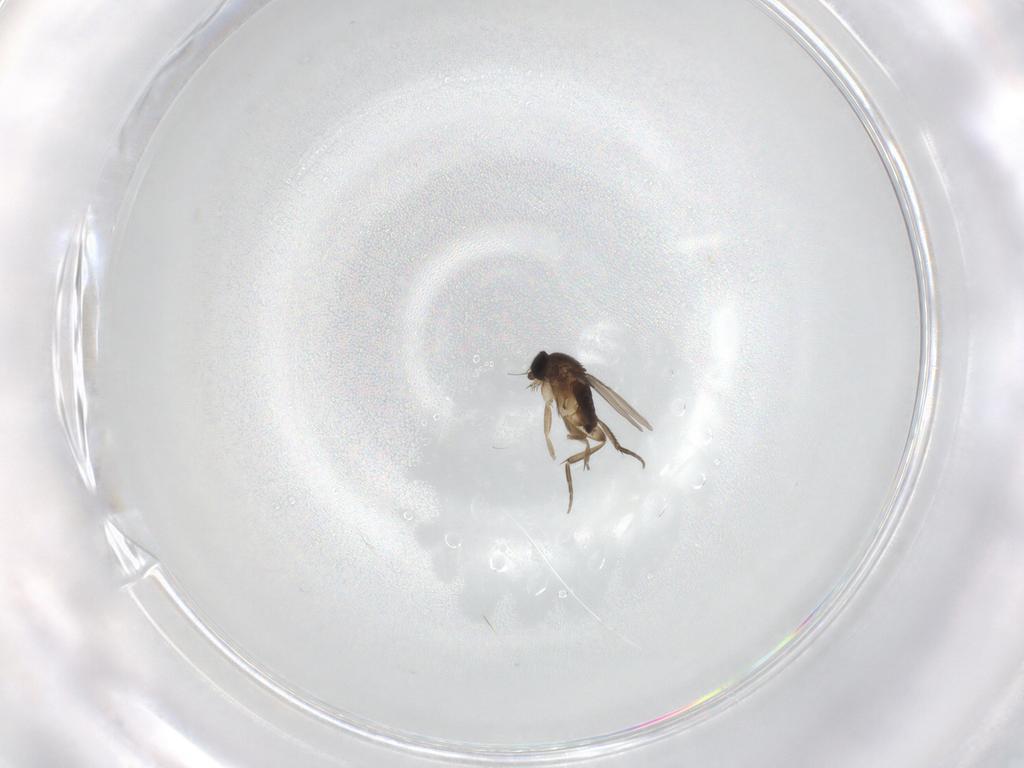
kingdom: Animalia
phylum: Arthropoda
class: Insecta
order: Diptera
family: Phoridae
